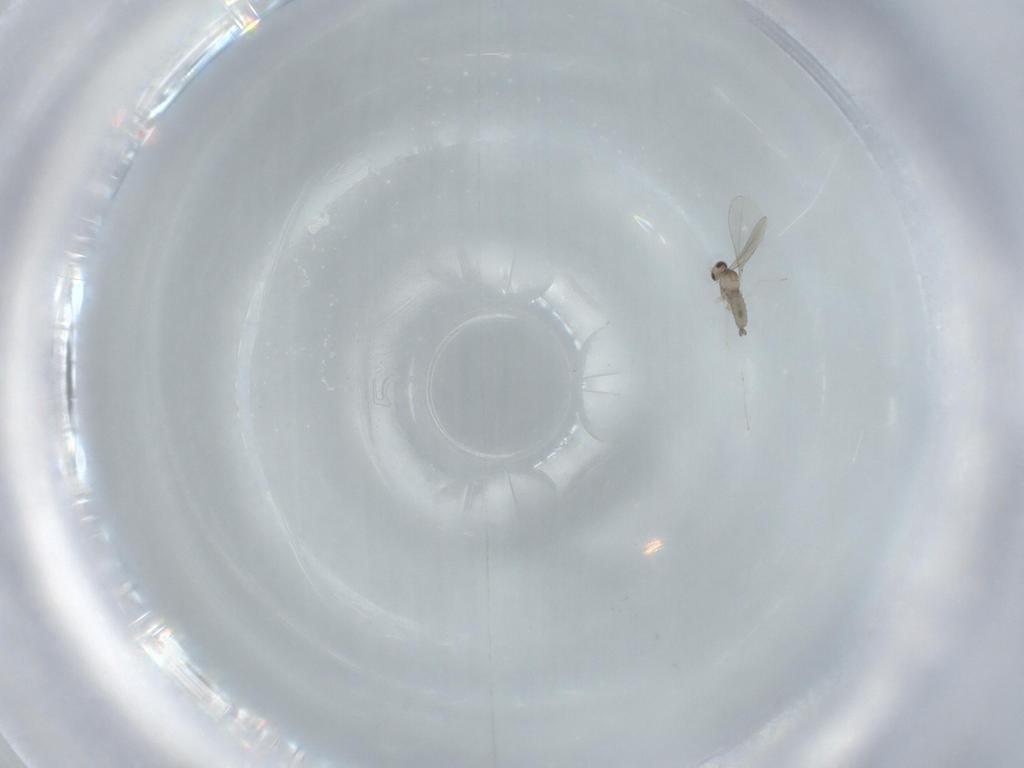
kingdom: Animalia
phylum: Arthropoda
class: Insecta
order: Diptera
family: Cecidomyiidae
